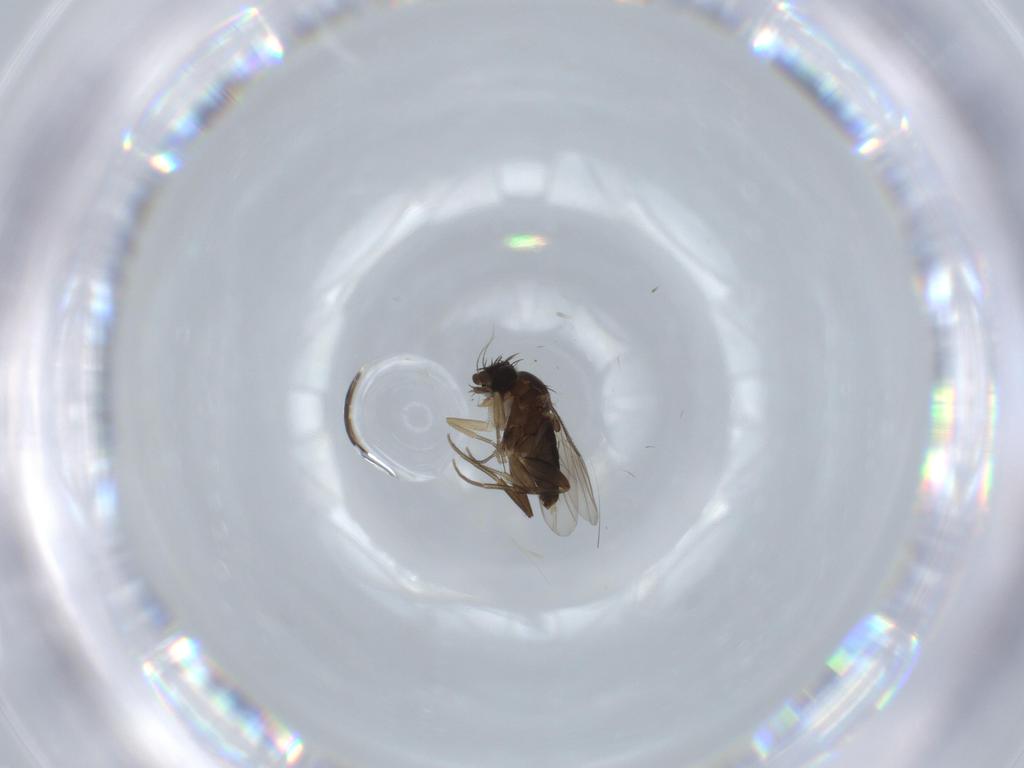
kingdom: Animalia
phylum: Arthropoda
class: Insecta
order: Diptera
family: Phoridae
